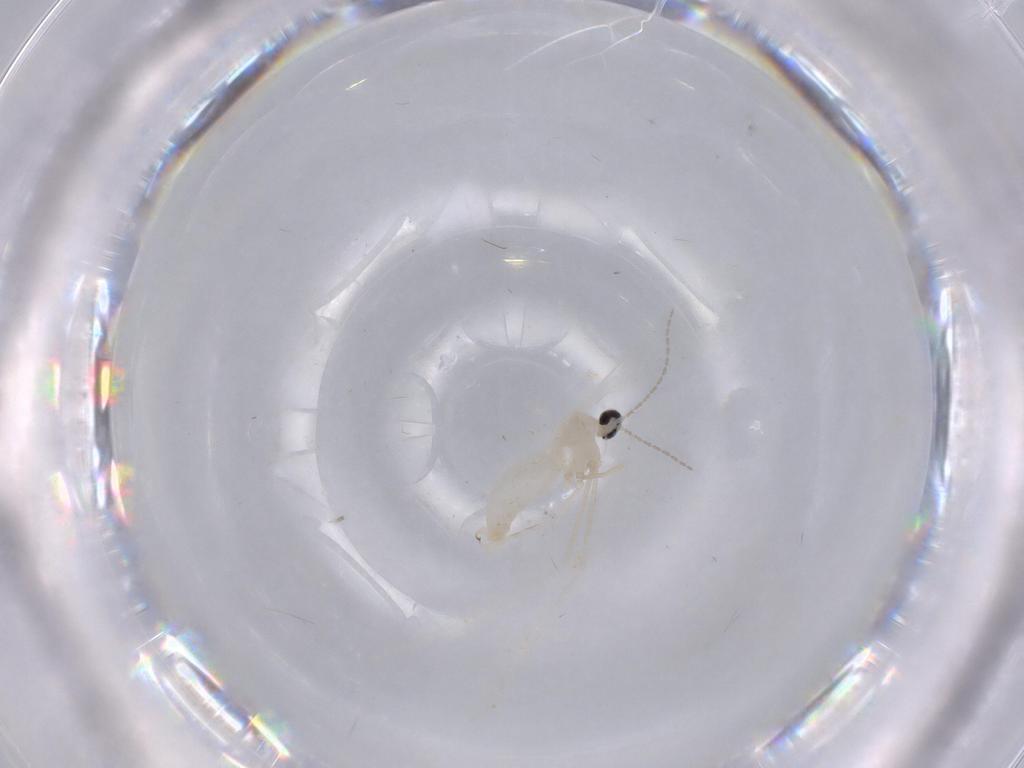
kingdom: Animalia
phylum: Arthropoda
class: Insecta
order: Diptera
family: Cecidomyiidae
